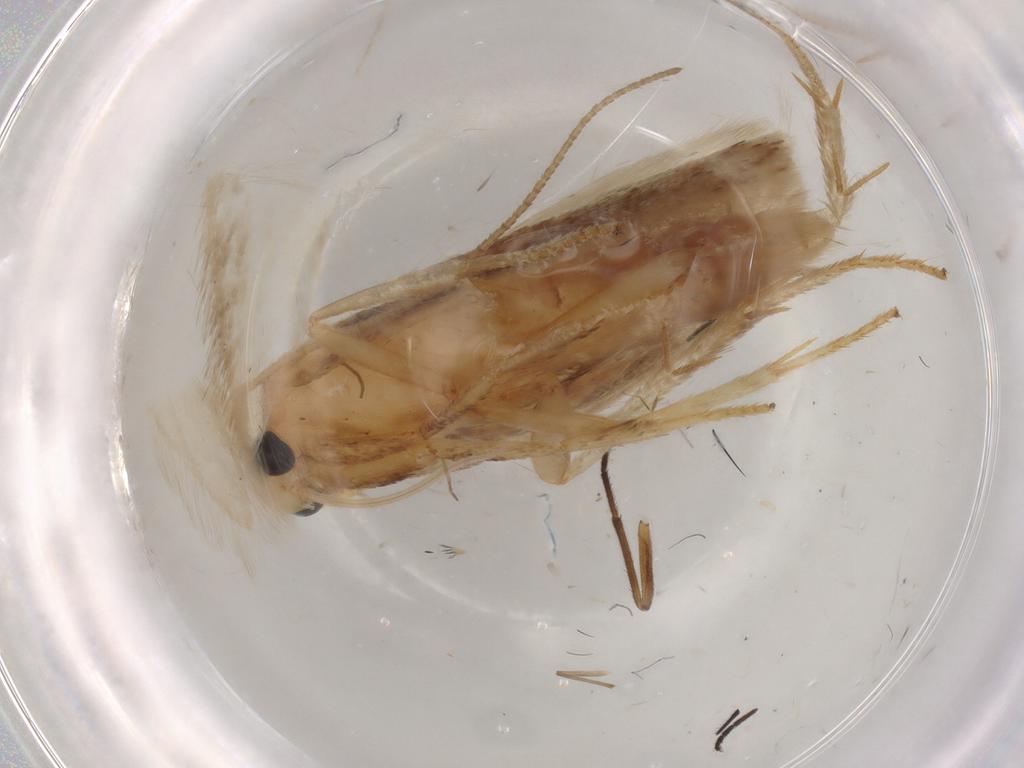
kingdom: Animalia
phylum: Arthropoda
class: Insecta
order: Lepidoptera
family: Geometridae
